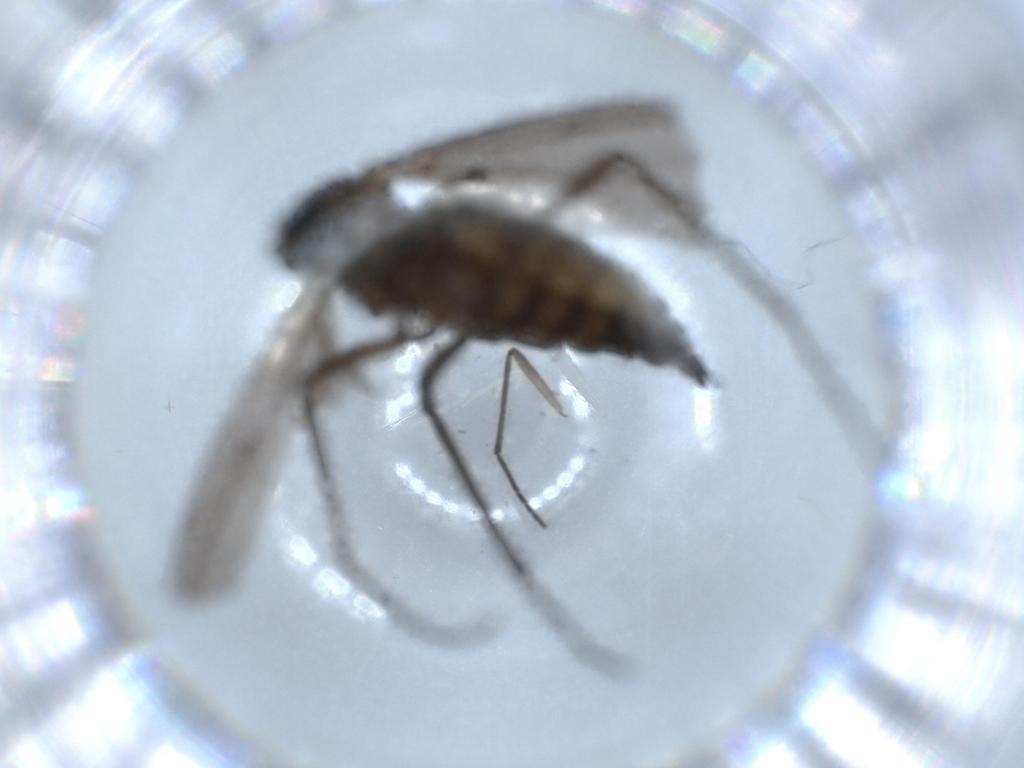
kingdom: Animalia
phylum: Arthropoda
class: Insecta
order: Diptera
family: Sciaridae
